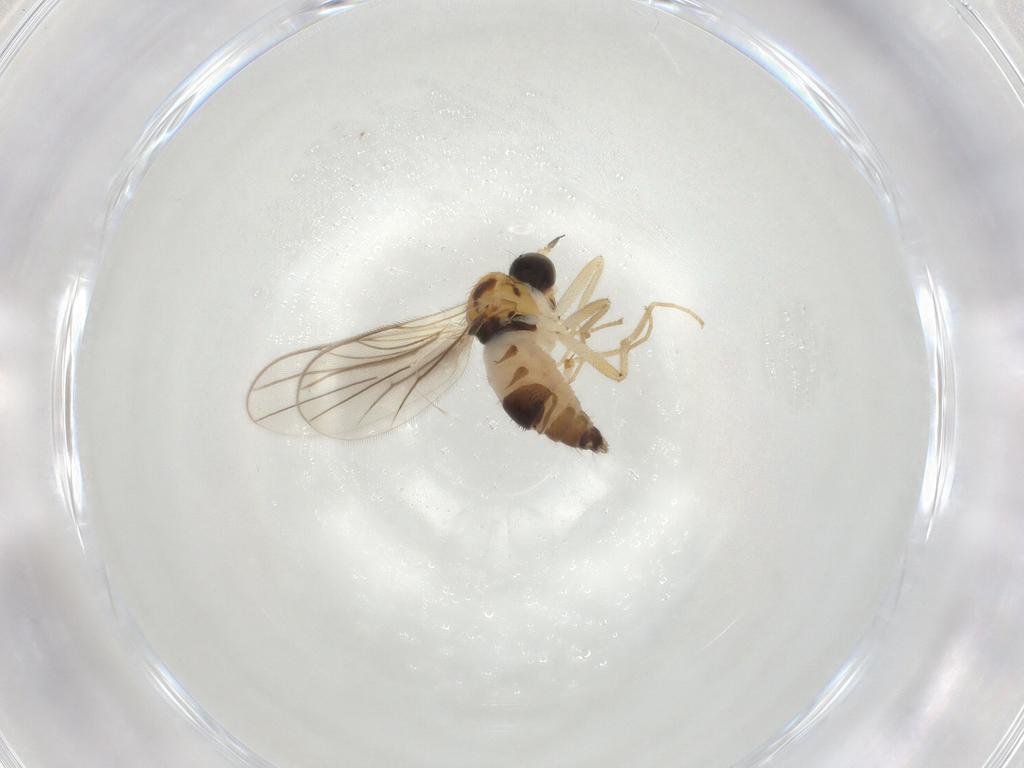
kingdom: Animalia
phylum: Arthropoda
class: Insecta
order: Diptera
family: Hybotidae
